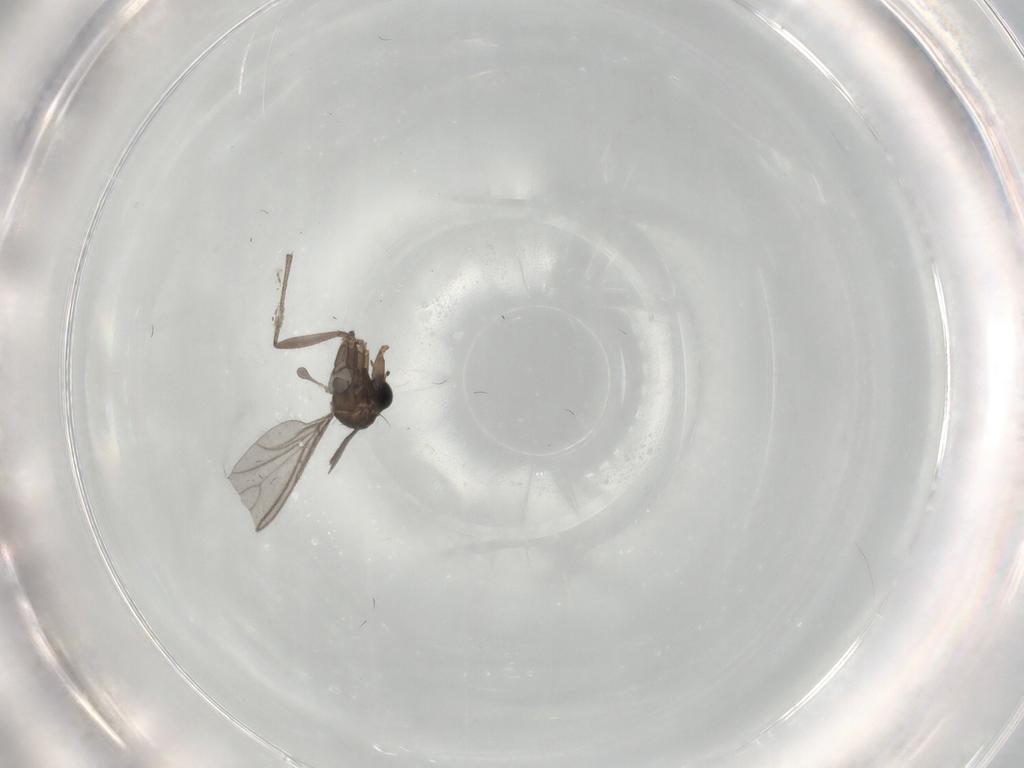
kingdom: Animalia
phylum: Arthropoda
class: Insecta
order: Diptera
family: Sciaridae
